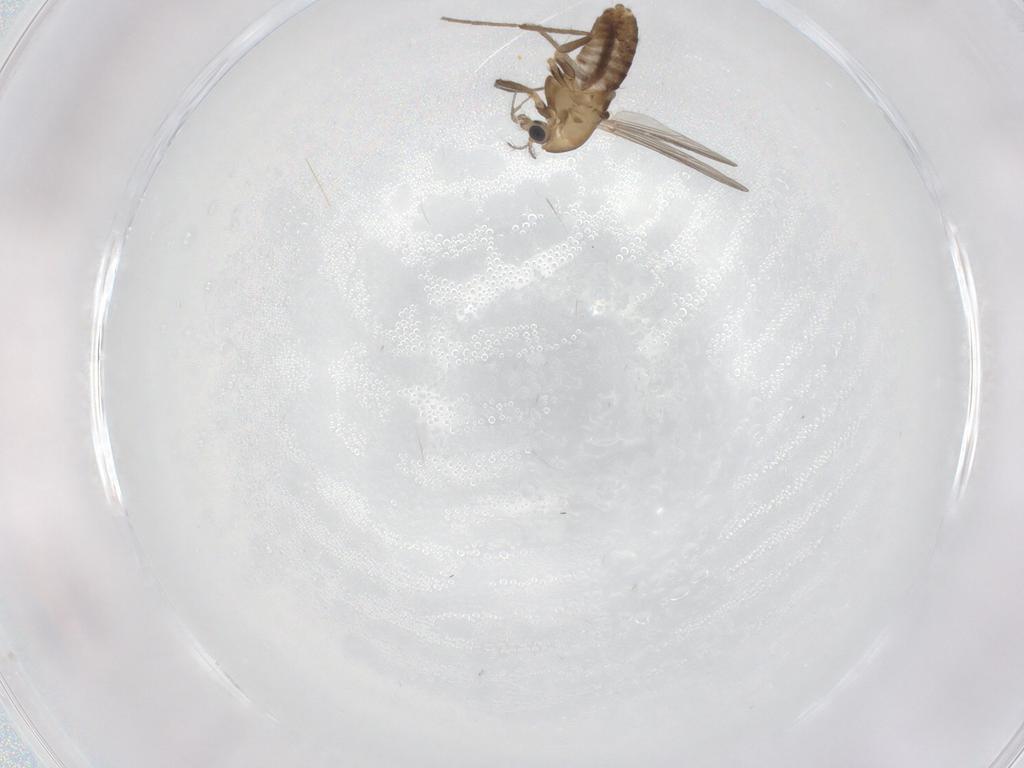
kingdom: Animalia
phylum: Arthropoda
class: Insecta
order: Diptera
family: Chironomidae
